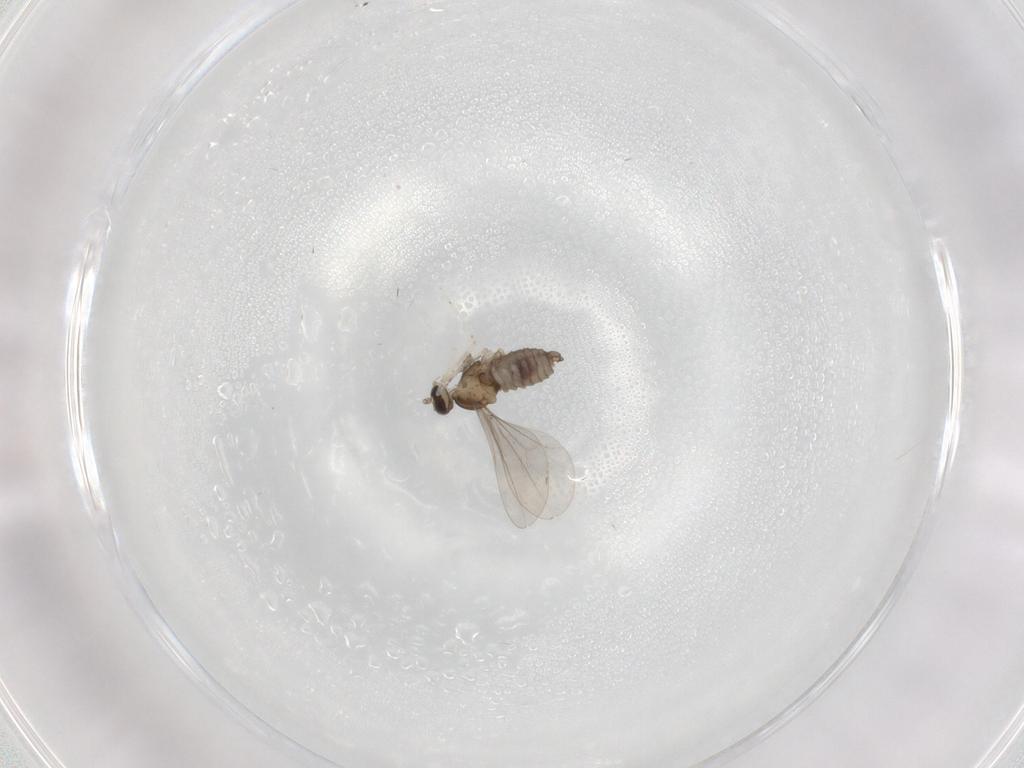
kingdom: Animalia
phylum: Arthropoda
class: Insecta
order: Diptera
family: Cecidomyiidae
